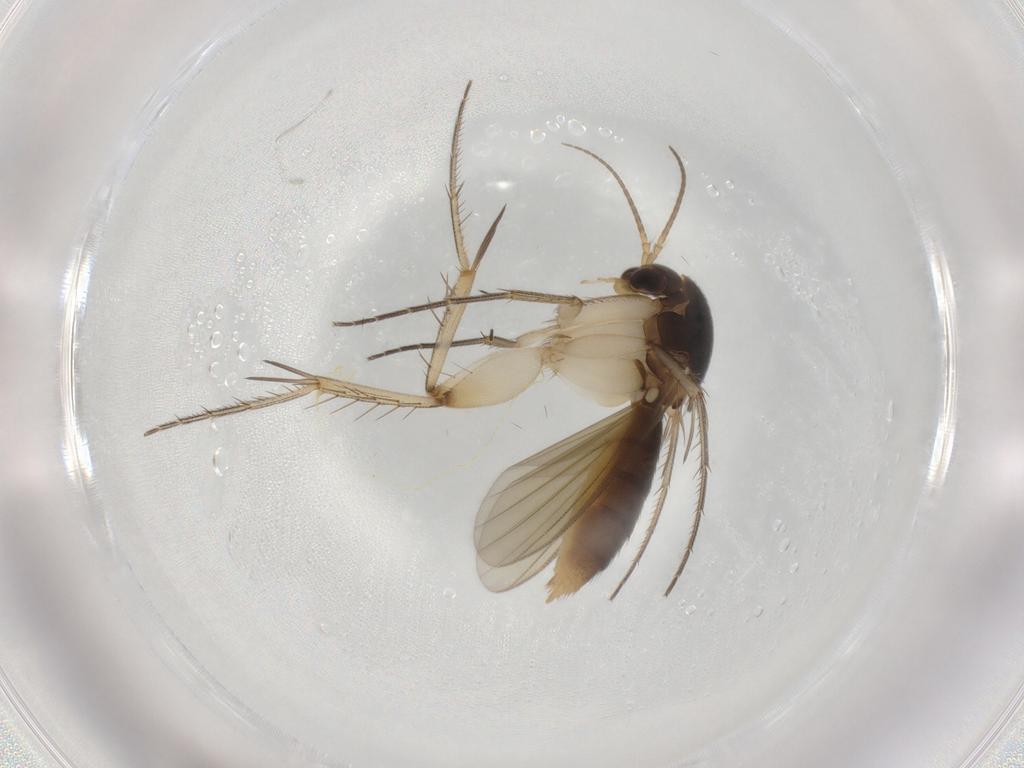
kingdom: Animalia
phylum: Arthropoda
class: Insecta
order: Diptera
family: Mycetophilidae
